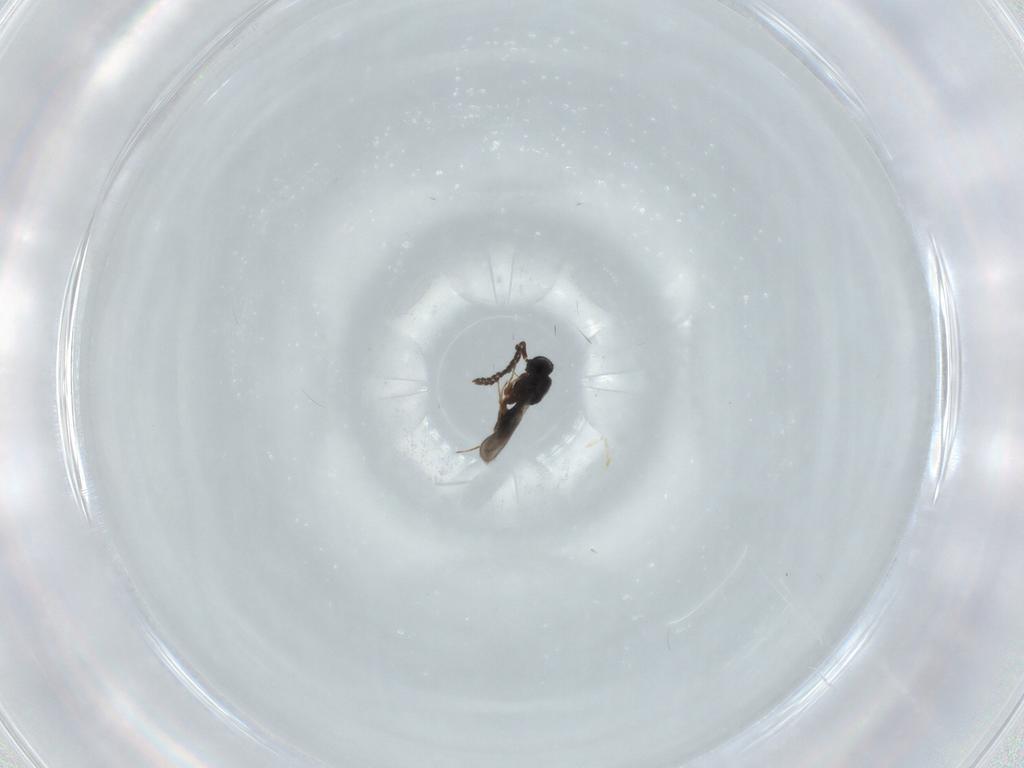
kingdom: Animalia
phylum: Arthropoda
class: Insecta
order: Hymenoptera
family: Scelionidae
